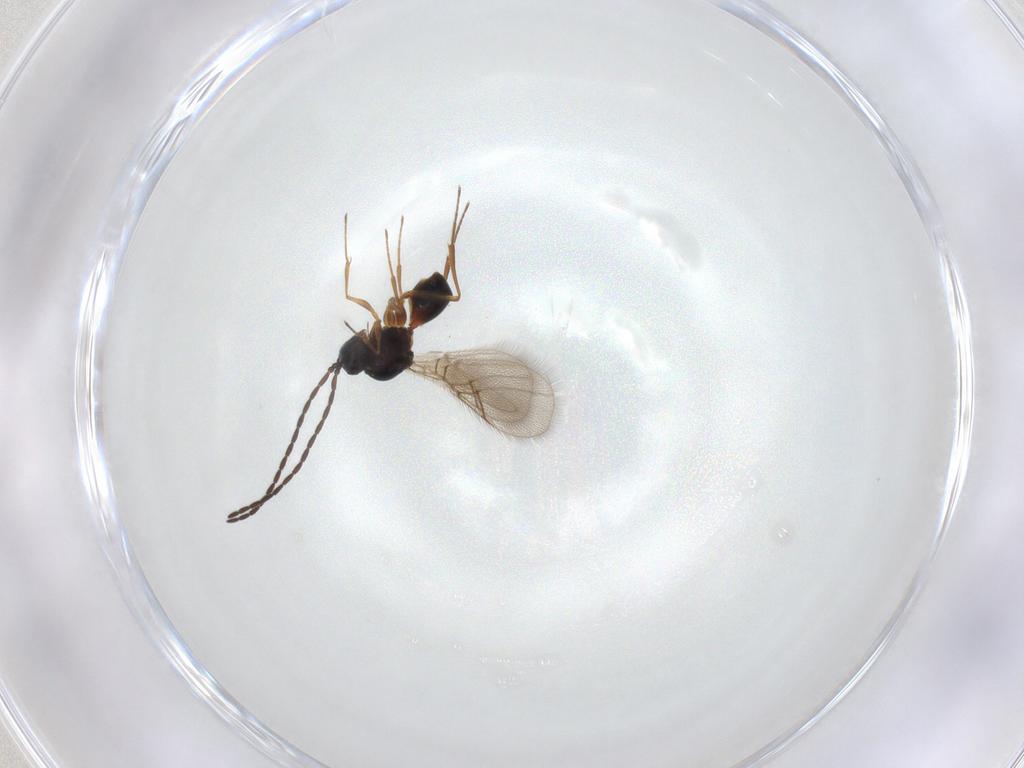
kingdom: Animalia
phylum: Arthropoda
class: Insecta
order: Hymenoptera
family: Figitidae
